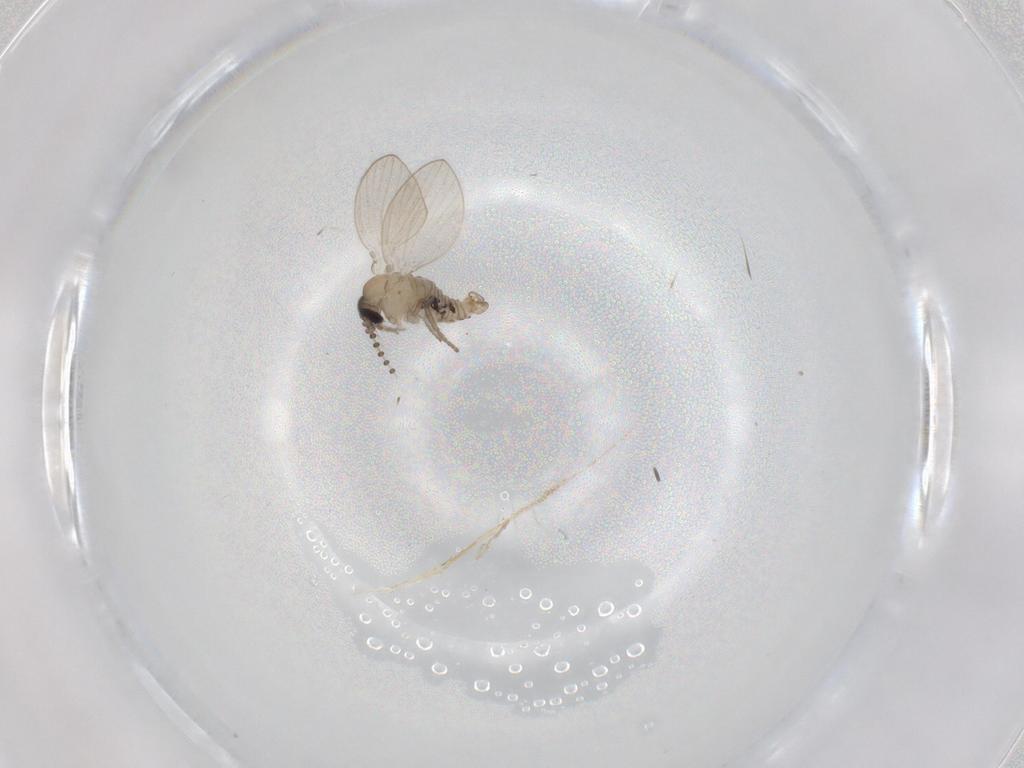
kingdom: Animalia
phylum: Arthropoda
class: Insecta
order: Diptera
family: Psychodidae
